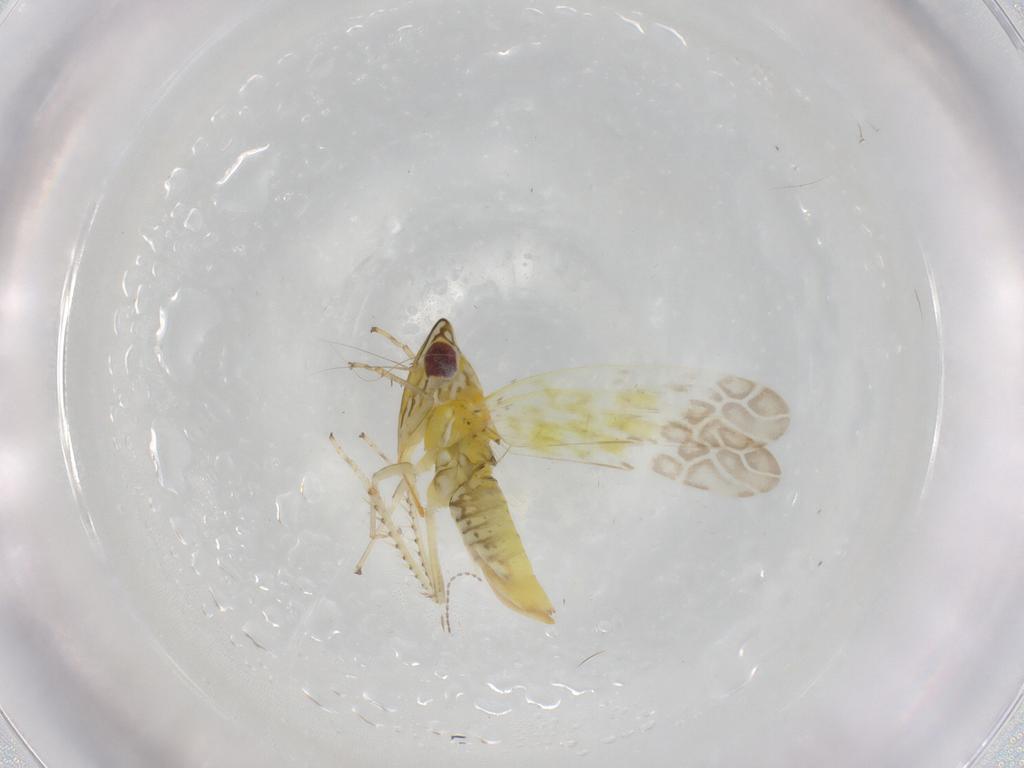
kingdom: Animalia
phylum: Arthropoda
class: Insecta
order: Hemiptera
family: Cicadellidae
